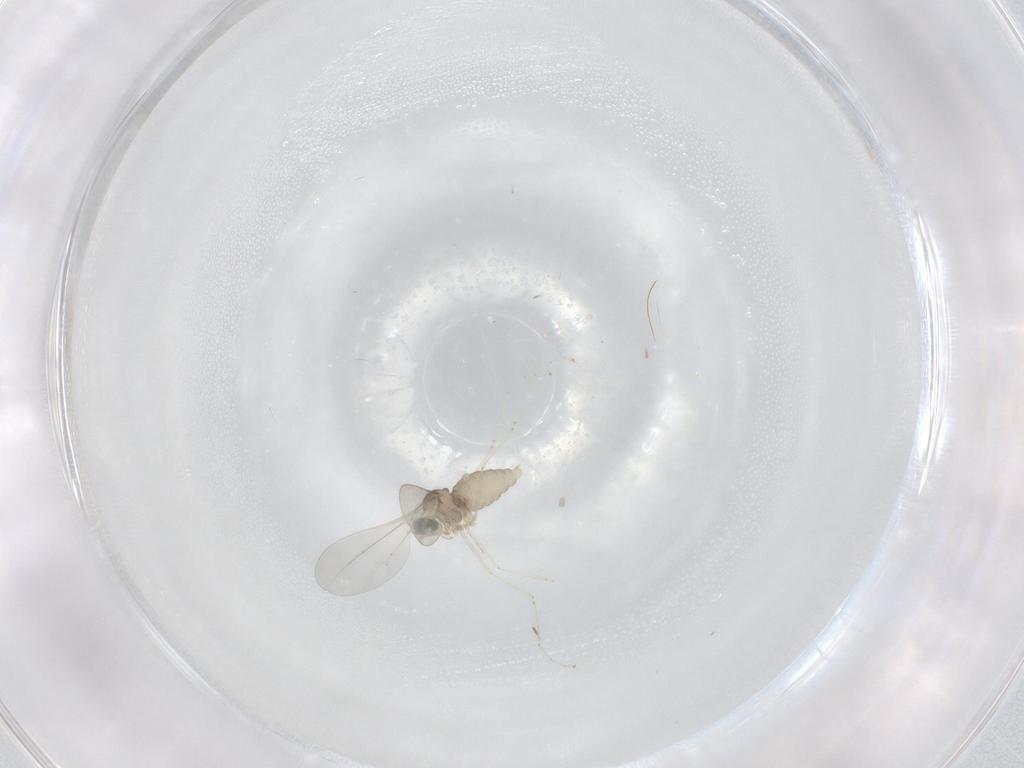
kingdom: Animalia
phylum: Arthropoda
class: Insecta
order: Diptera
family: Cecidomyiidae
